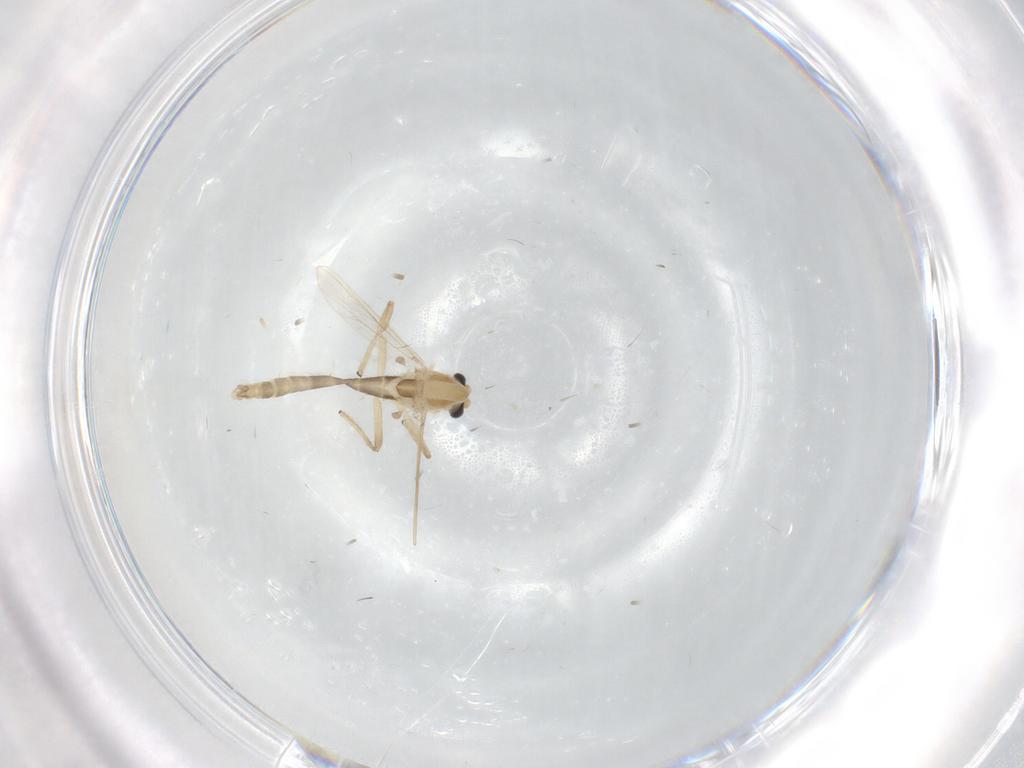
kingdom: Animalia
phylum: Arthropoda
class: Insecta
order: Diptera
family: Chironomidae
